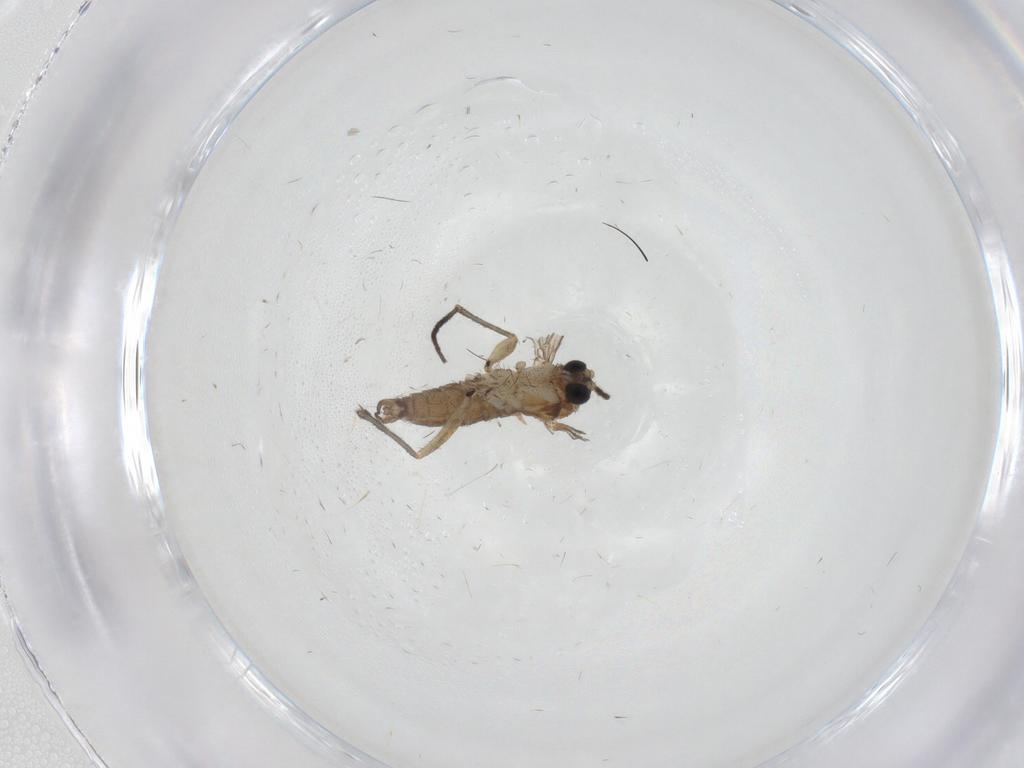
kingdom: Animalia
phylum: Arthropoda
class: Insecta
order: Diptera
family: Sciaridae
